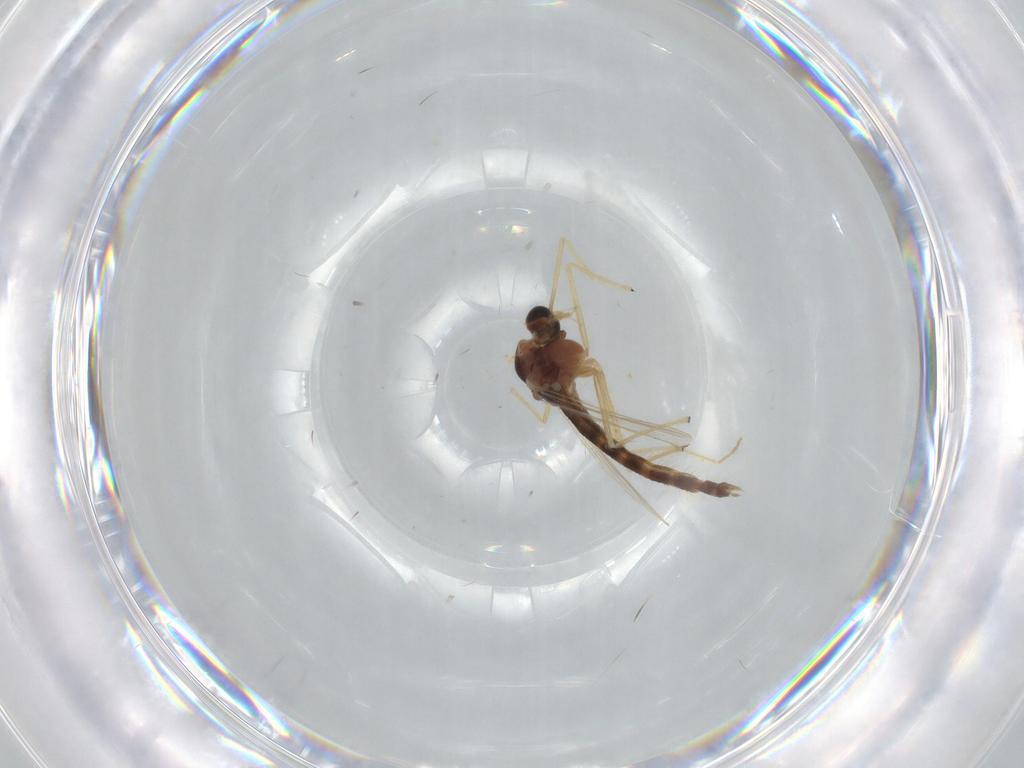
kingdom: Animalia
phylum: Arthropoda
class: Insecta
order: Diptera
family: Chironomidae
